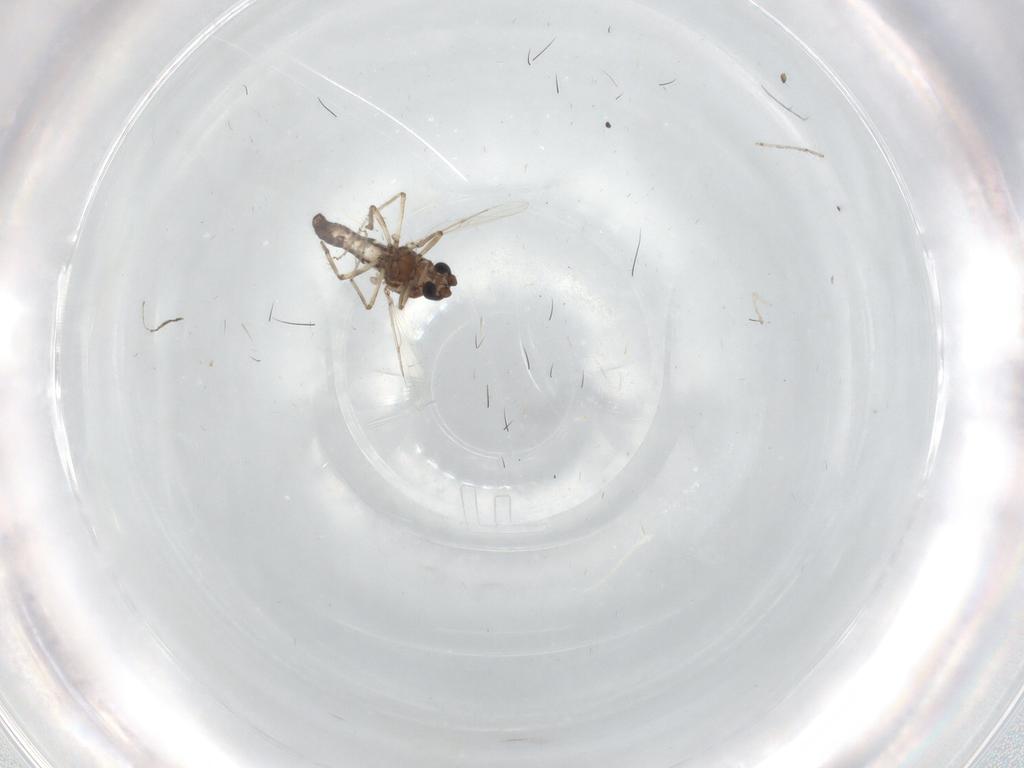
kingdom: Animalia
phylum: Arthropoda
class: Insecta
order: Diptera
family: Ceratopogonidae
